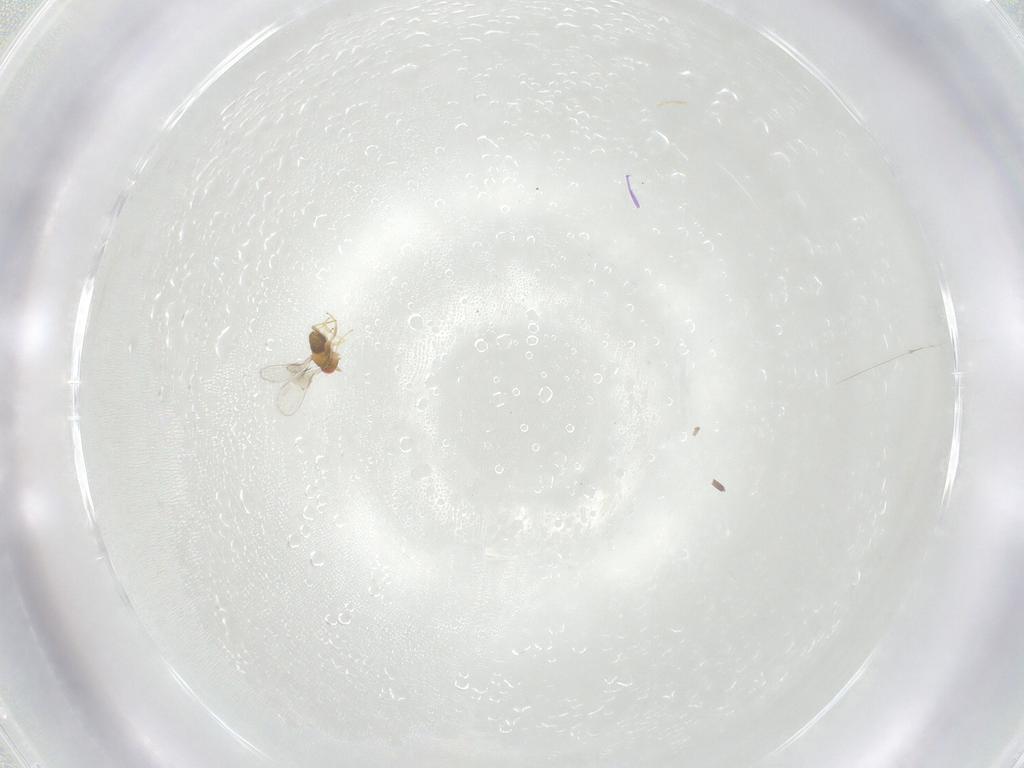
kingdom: Animalia
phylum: Arthropoda
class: Insecta
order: Hymenoptera
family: Trichogrammatidae
